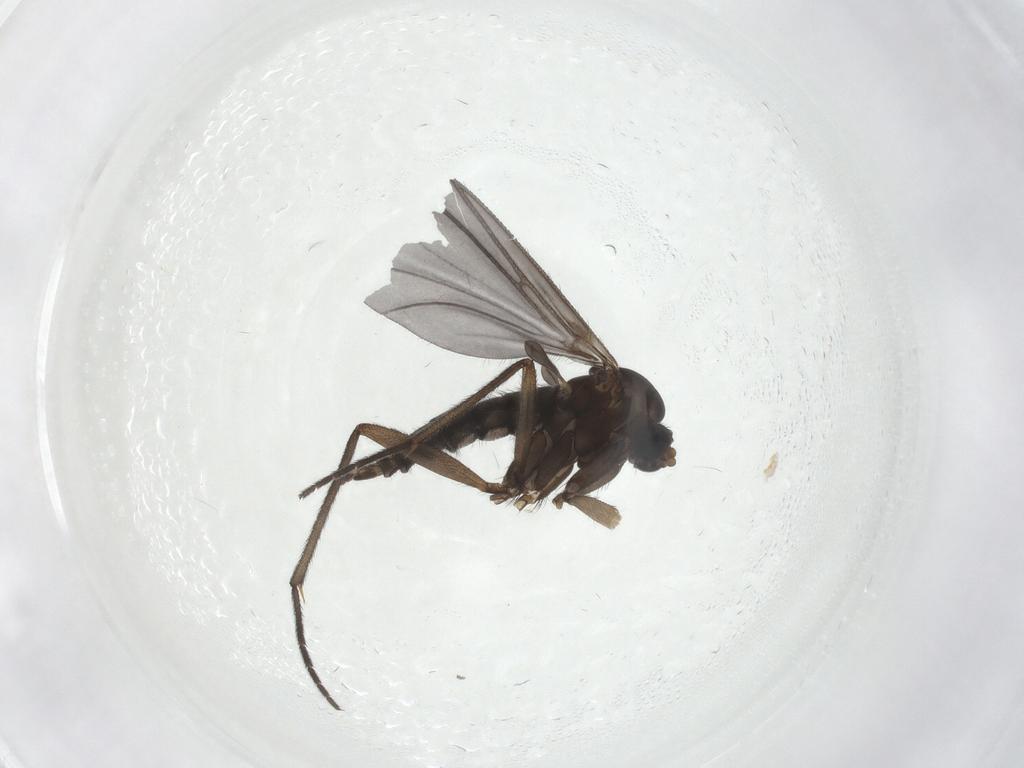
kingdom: Animalia
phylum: Arthropoda
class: Insecta
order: Diptera
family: Sciaridae
